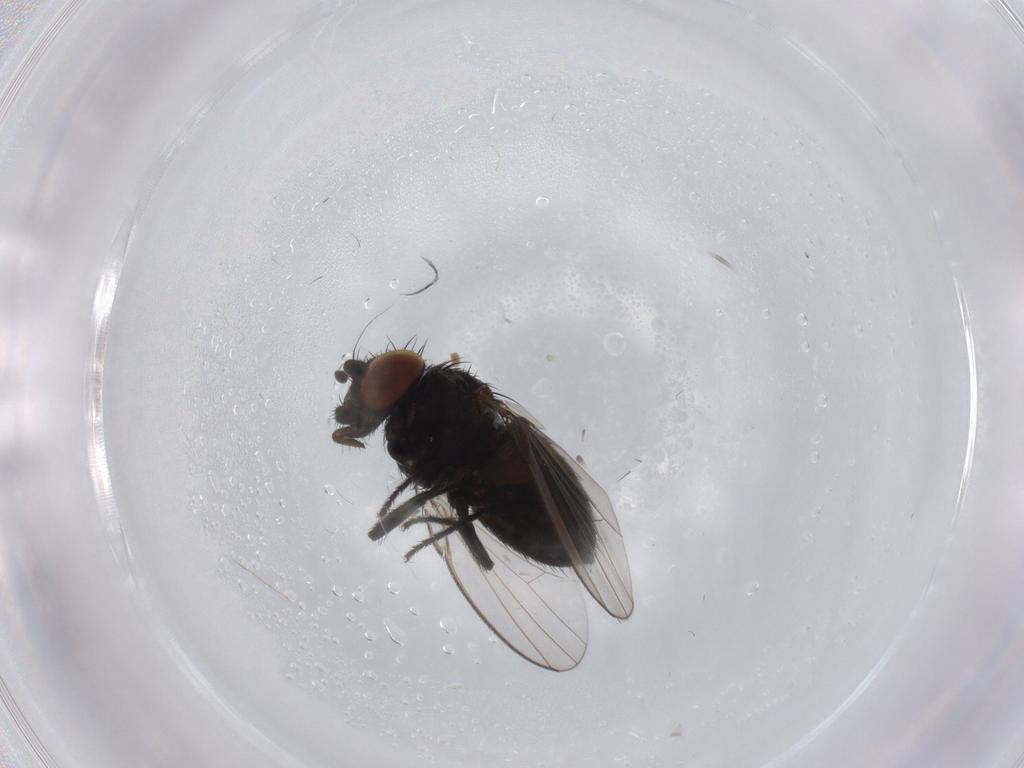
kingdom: Animalia
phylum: Arthropoda
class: Insecta
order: Diptera
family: Milichiidae
